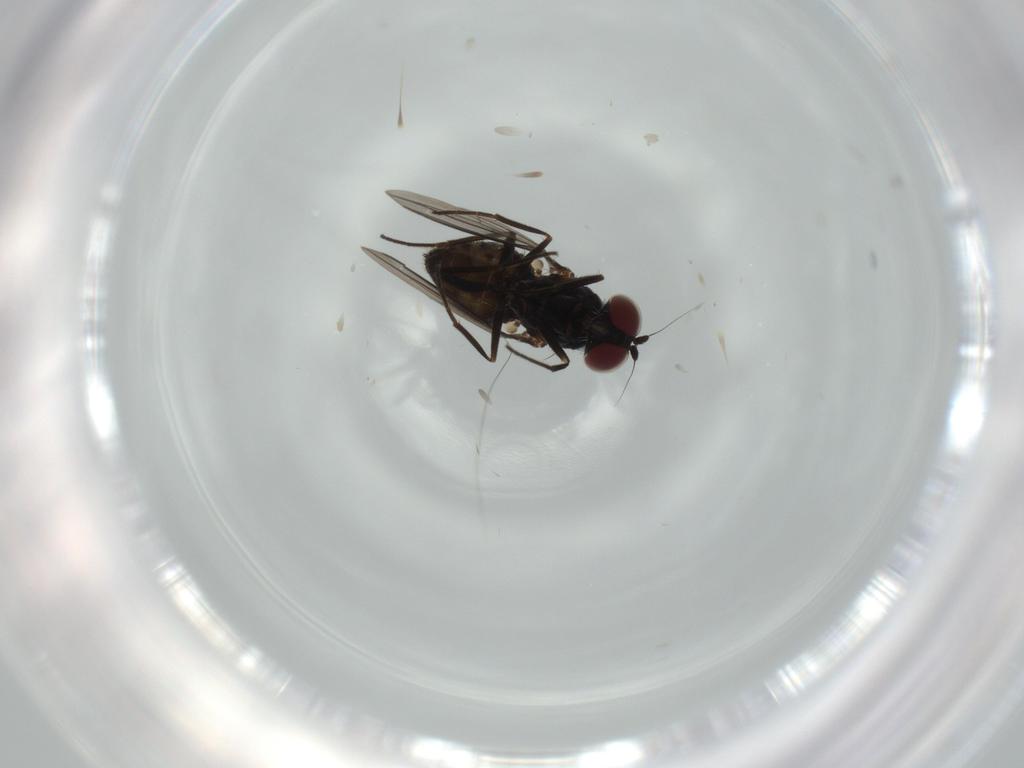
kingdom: Animalia
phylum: Arthropoda
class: Insecta
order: Diptera
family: Dolichopodidae
